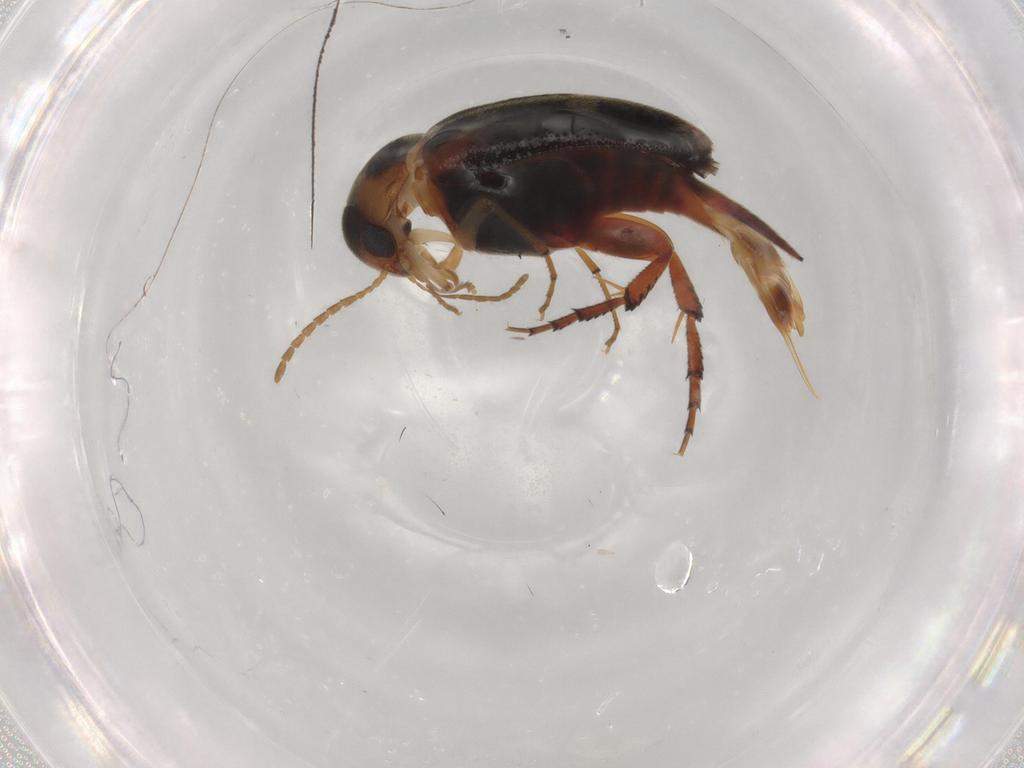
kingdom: Animalia
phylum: Arthropoda
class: Insecta
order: Coleoptera
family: Mordellidae
